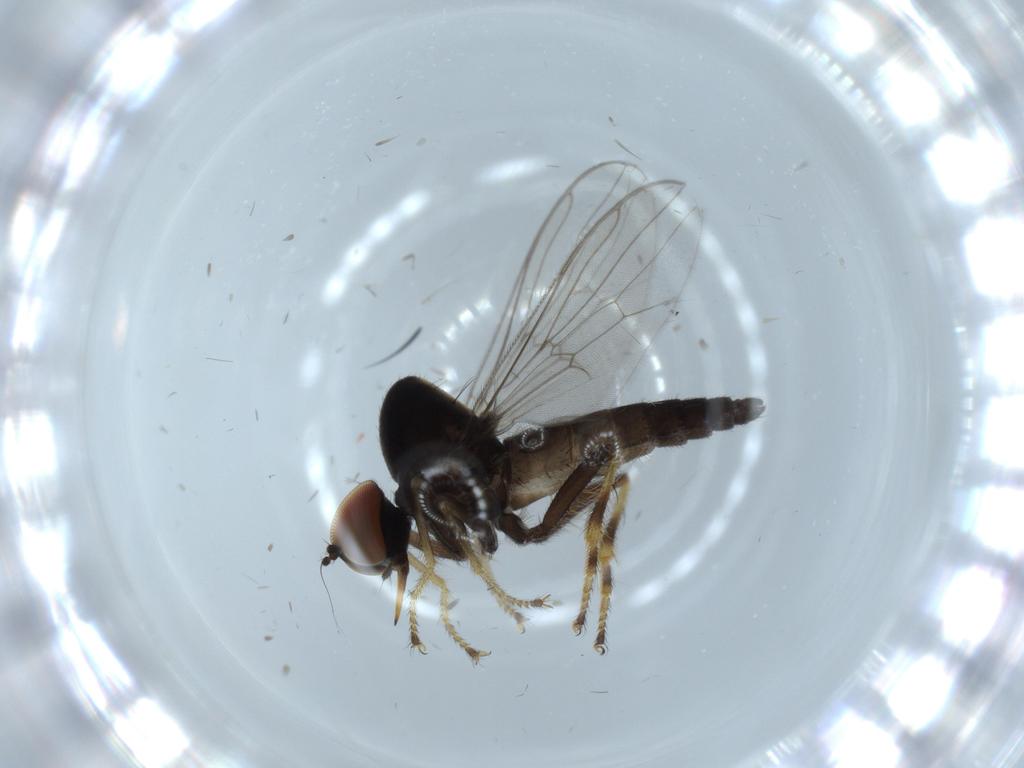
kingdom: Animalia
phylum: Arthropoda
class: Insecta
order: Diptera
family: Hybotidae
